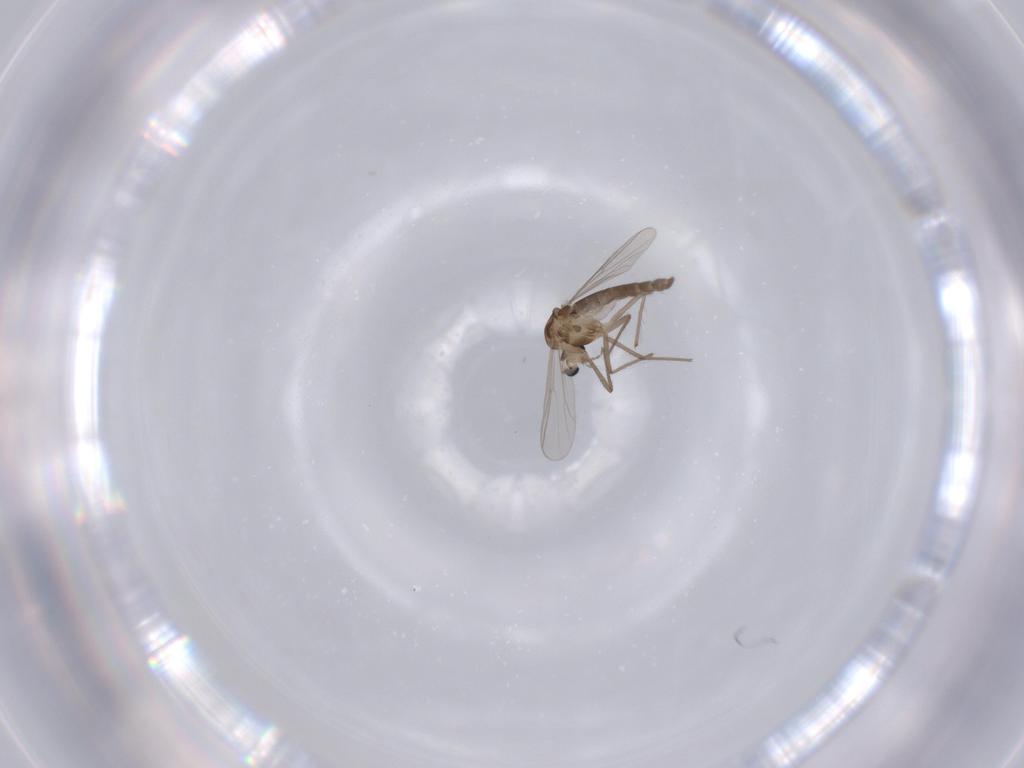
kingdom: Animalia
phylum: Arthropoda
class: Insecta
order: Diptera
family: Chironomidae
